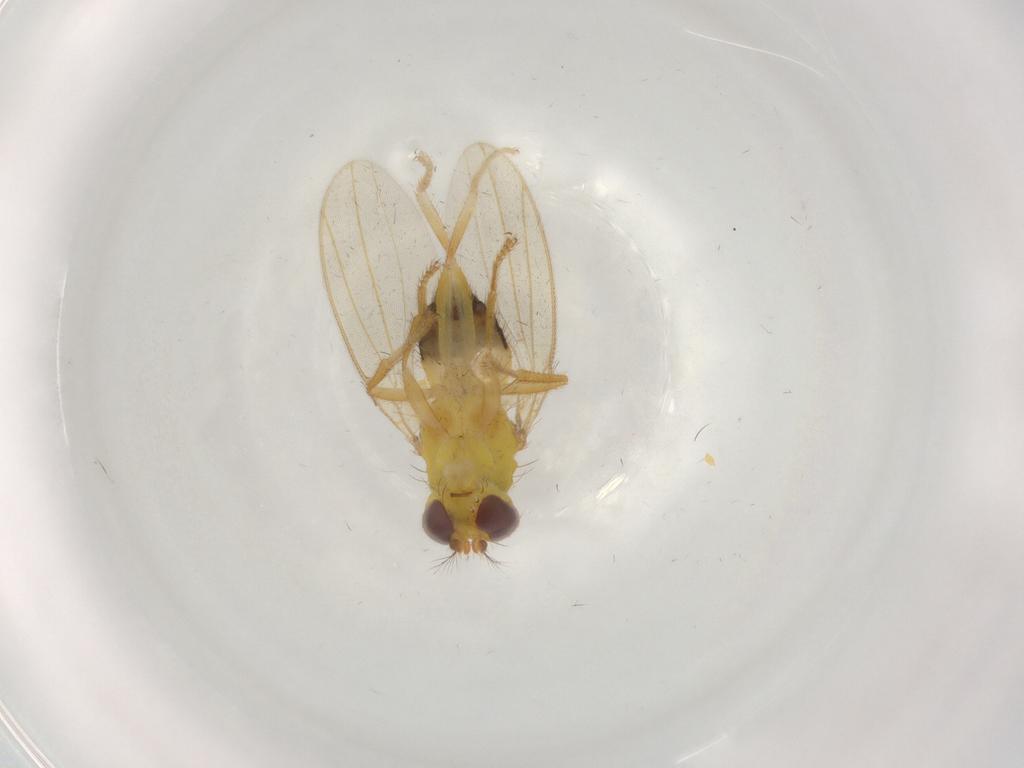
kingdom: Animalia
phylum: Arthropoda
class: Insecta
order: Diptera
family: Periscelididae
